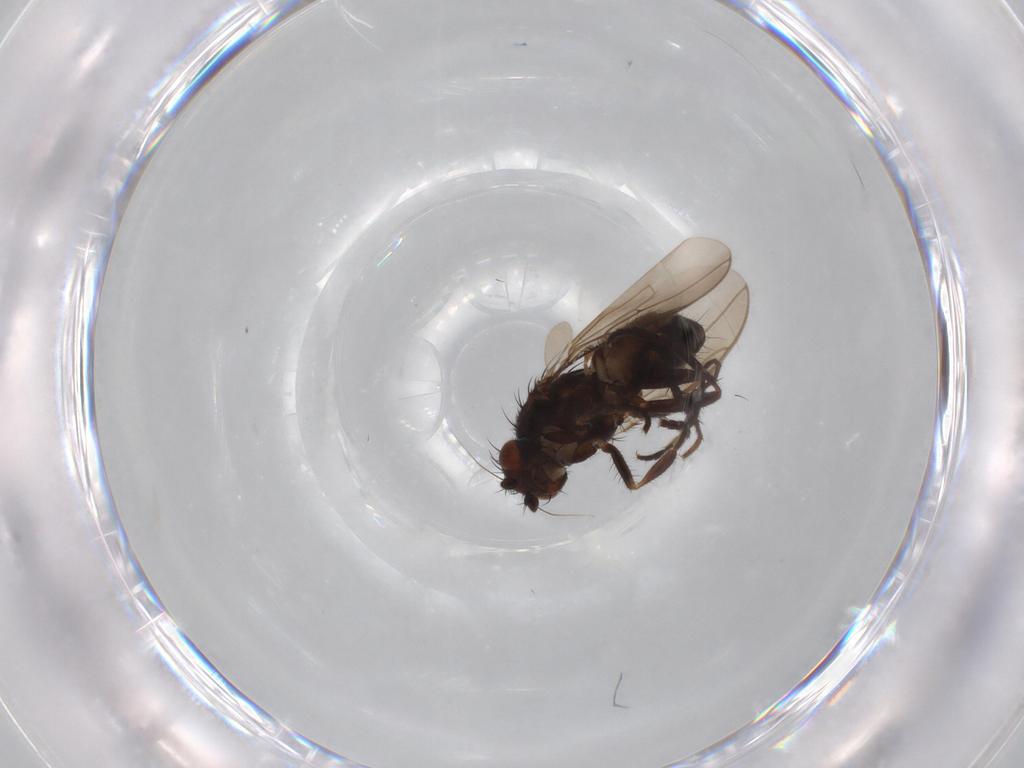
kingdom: Animalia
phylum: Arthropoda
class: Insecta
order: Diptera
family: Sphaeroceridae
